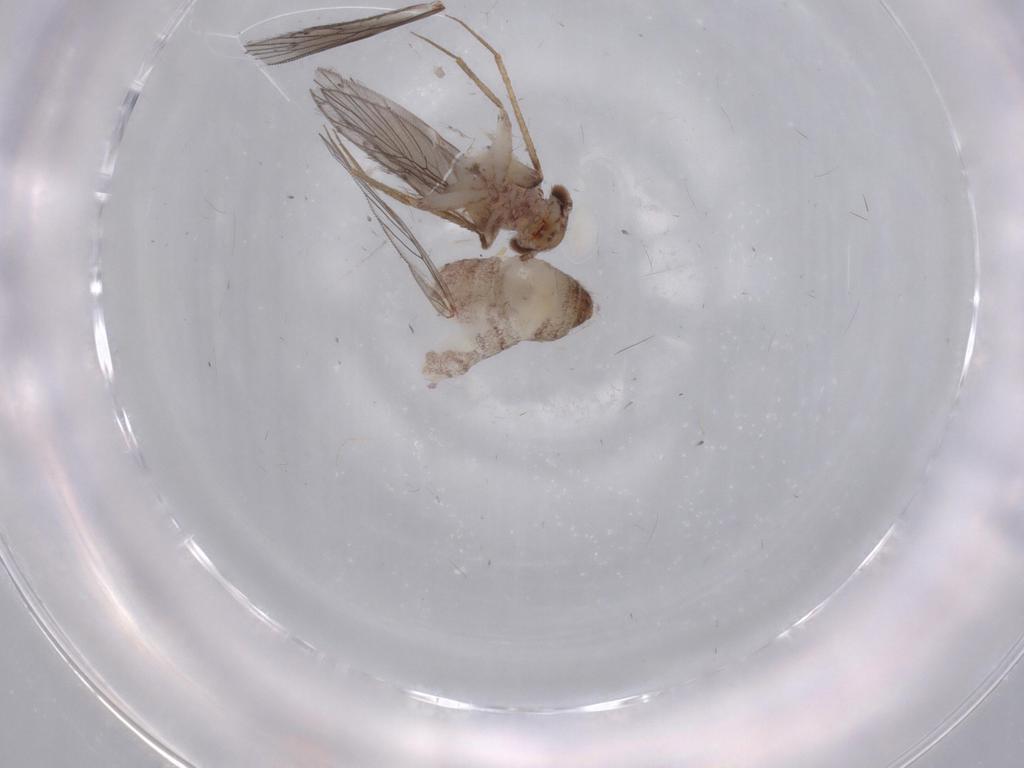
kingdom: Animalia
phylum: Arthropoda
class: Insecta
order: Psocodea
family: Lepidopsocidae
